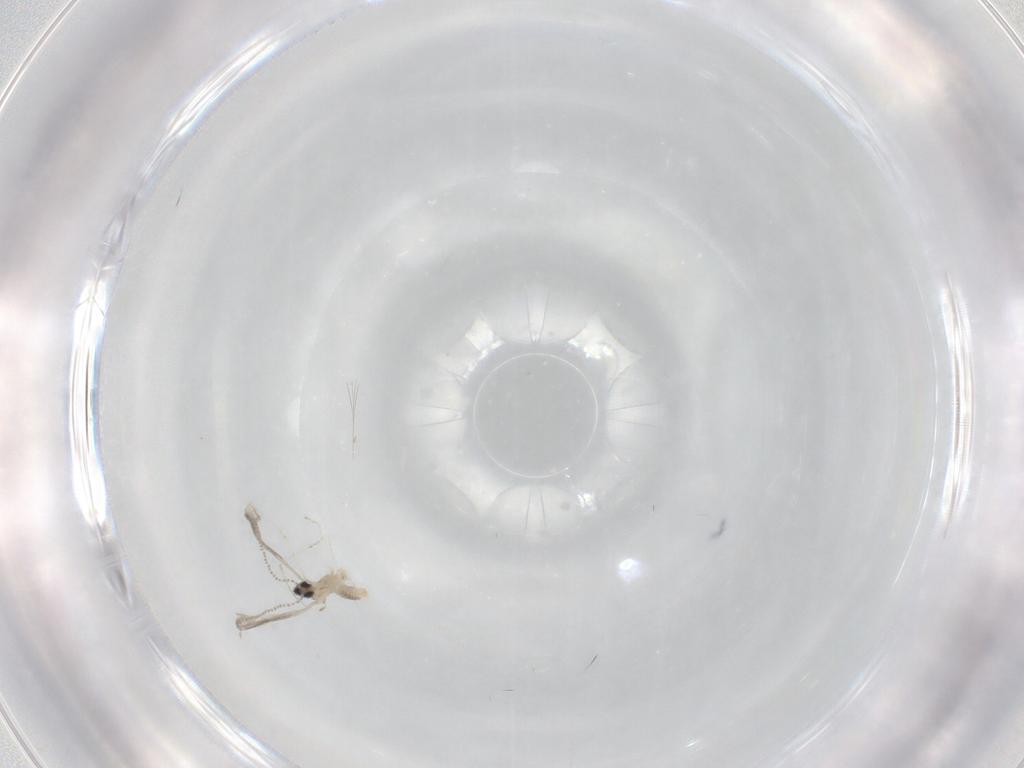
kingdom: Animalia
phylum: Arthropoda
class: Insecta
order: Diptera
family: Cecidomyiidae
